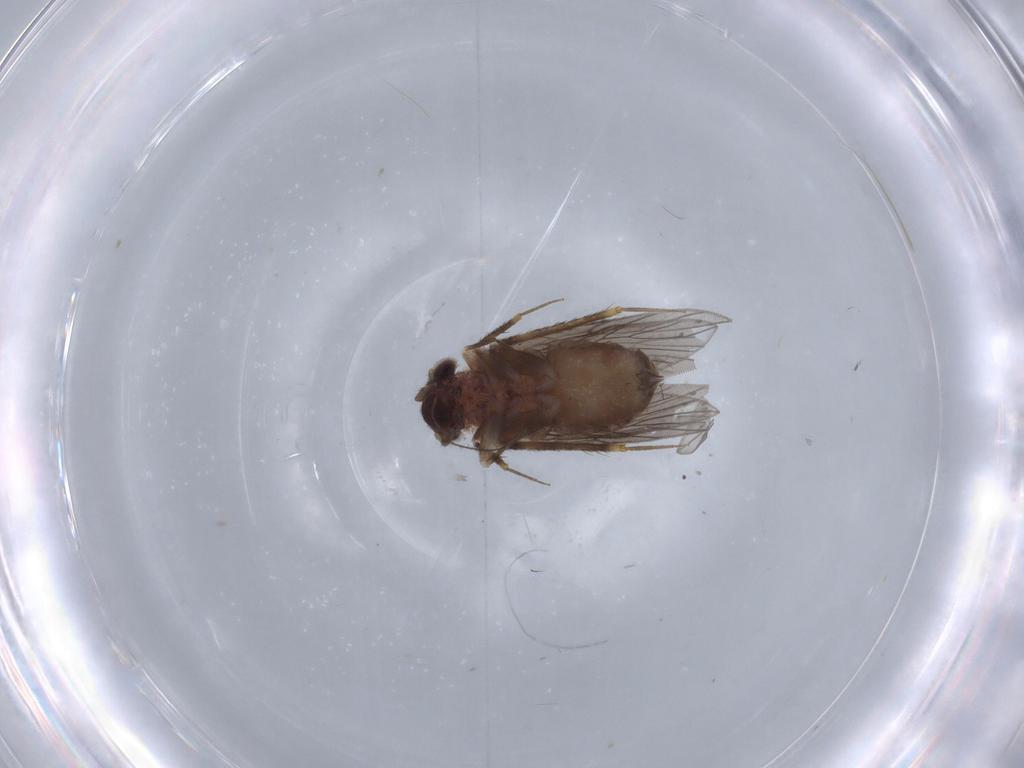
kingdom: Animalia
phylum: Arthropoda
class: Insecta
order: Psocodea
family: Lepidopsocidae
